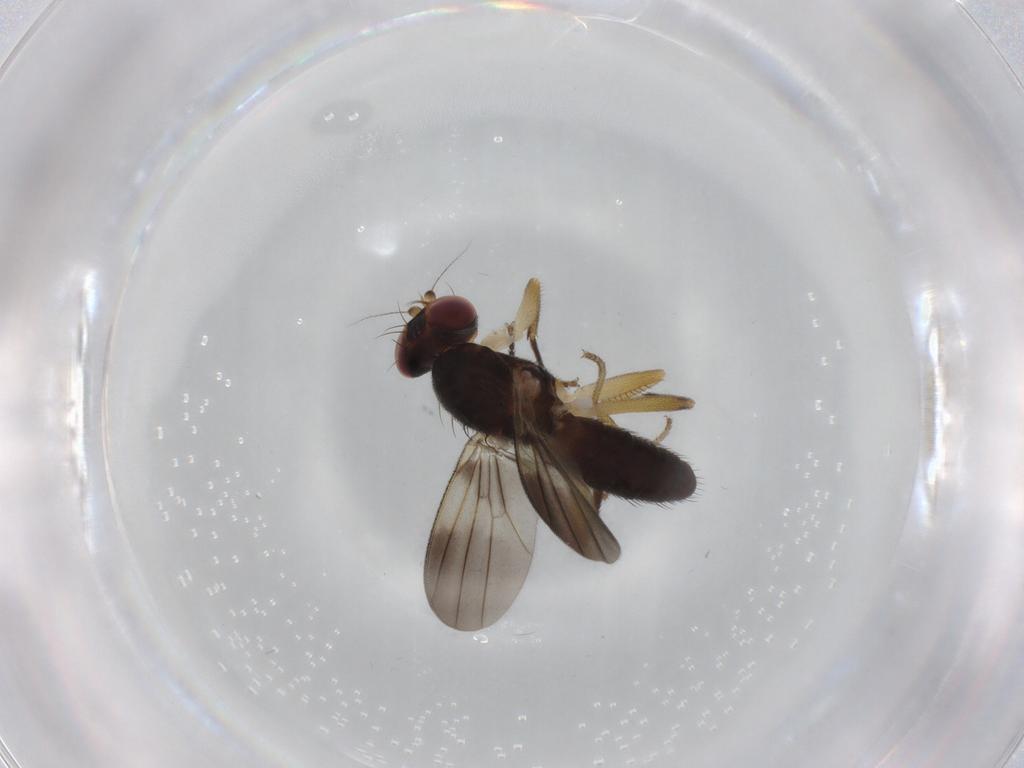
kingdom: Animalia
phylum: Arthropoda
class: Insecta
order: Diptera
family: Clusiidae
